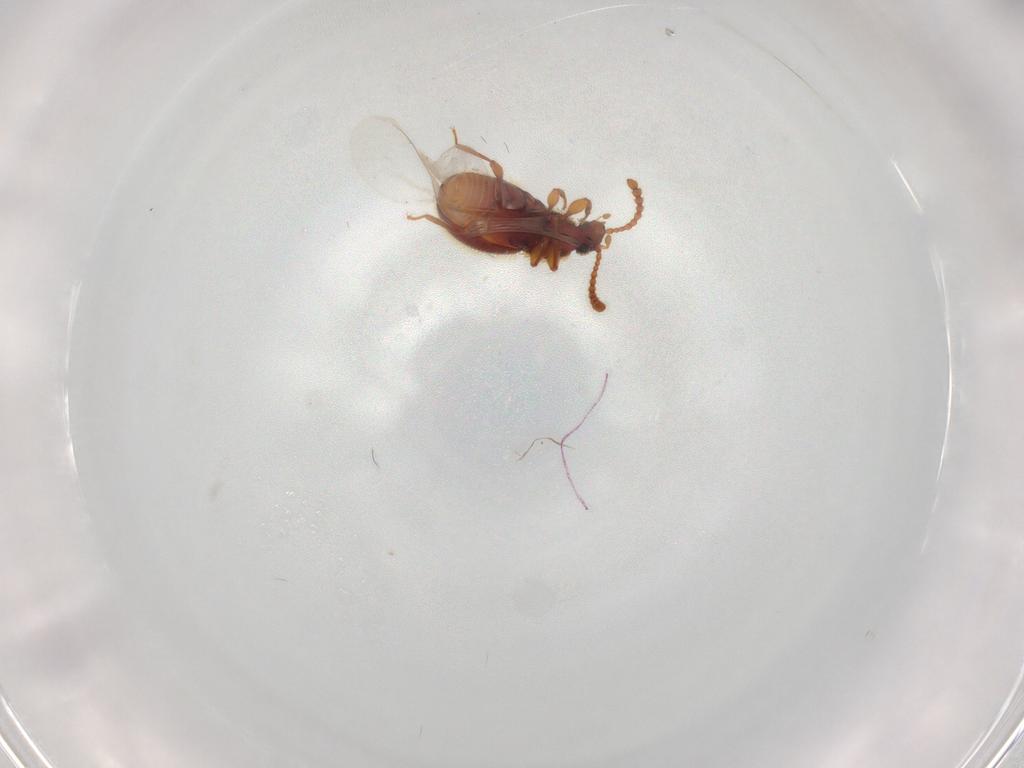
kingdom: Animalia
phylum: Arthropoda
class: Insecta
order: Coleoptera
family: Staphylinidae
